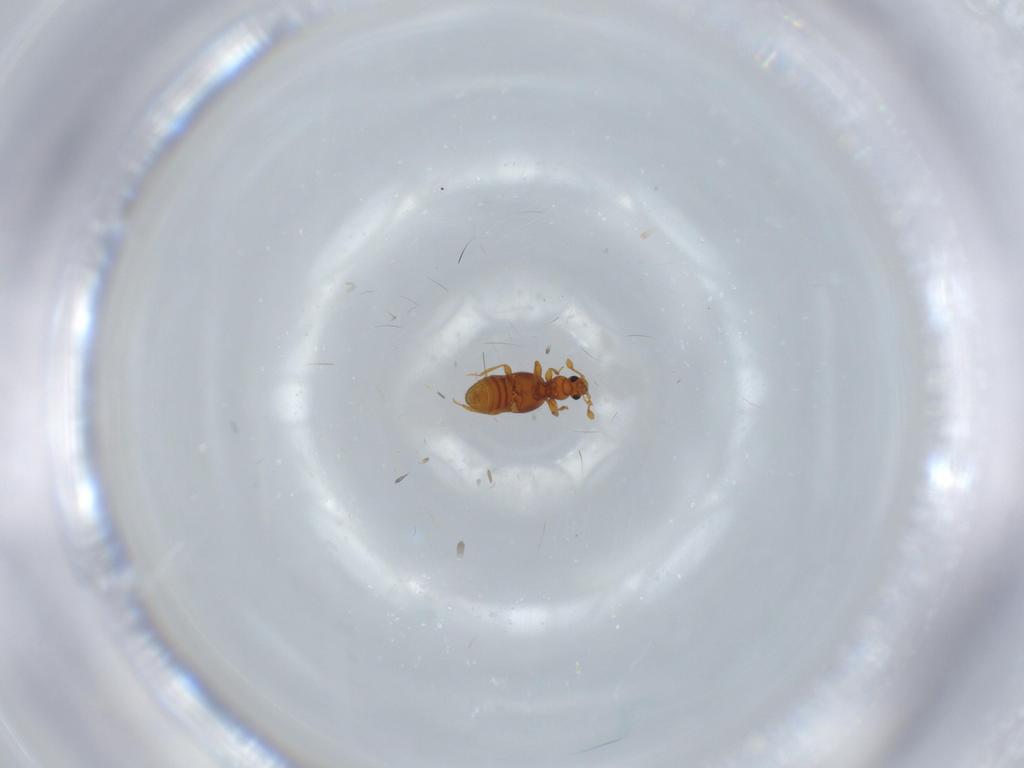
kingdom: Animalia
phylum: Arthropoda
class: Insecta
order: Coleoptera
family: Staphylinidae
